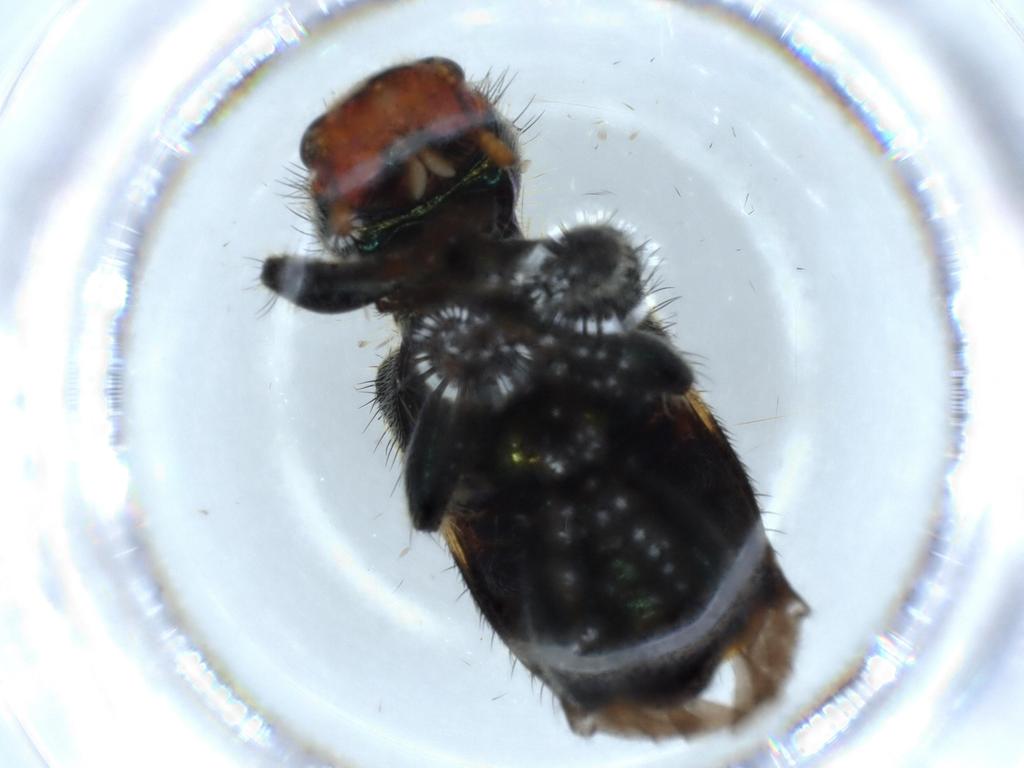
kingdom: Animalia
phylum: Arthropoda
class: Insecta
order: Coleoptera
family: Curculionidae
